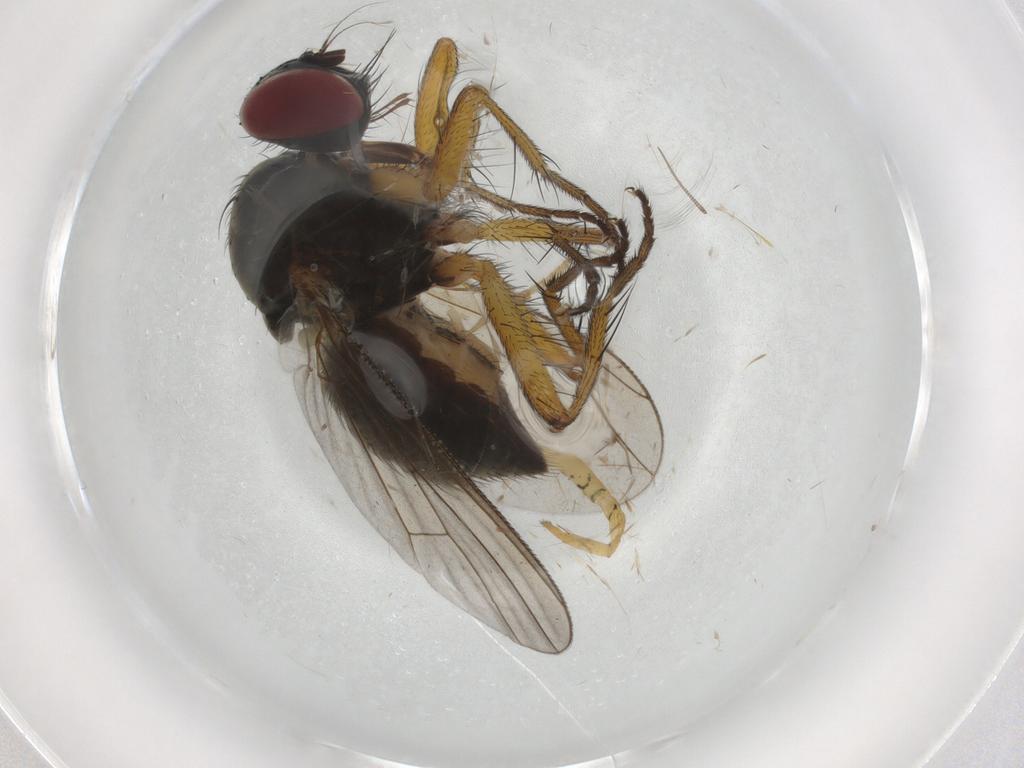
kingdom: Animalia
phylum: Arthropoda
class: Insecta
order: Diptera
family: Muscidae
